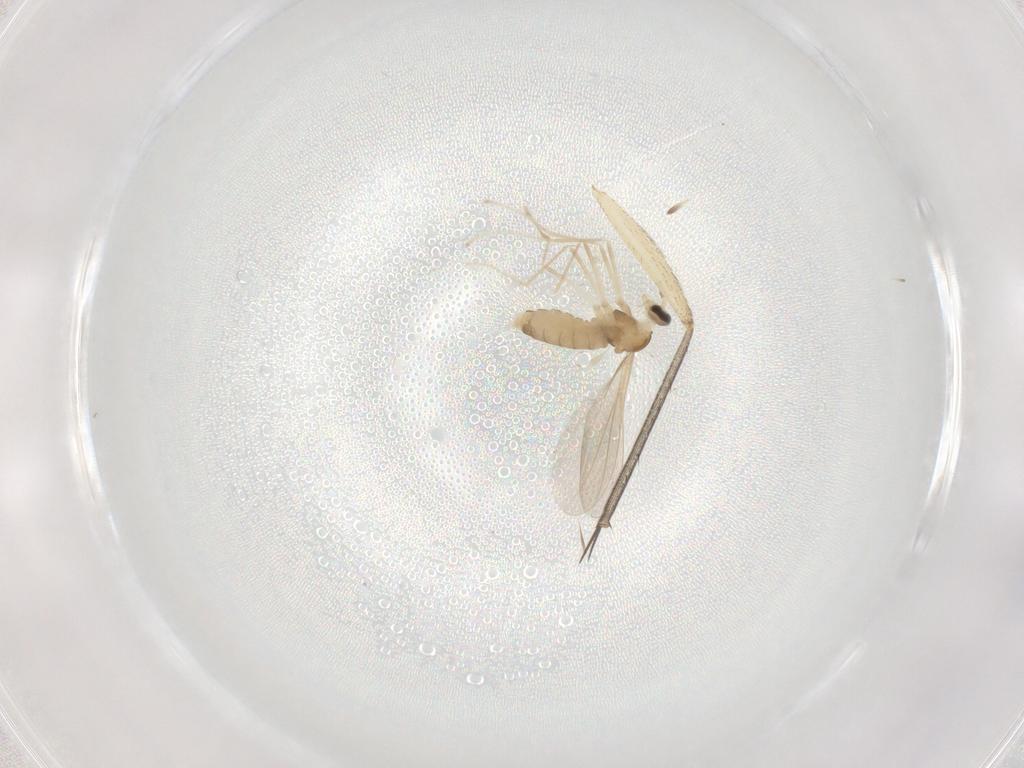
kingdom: Animalia
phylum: Arthropoda
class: Insecta
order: Diptera
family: Cecidomyiidae
